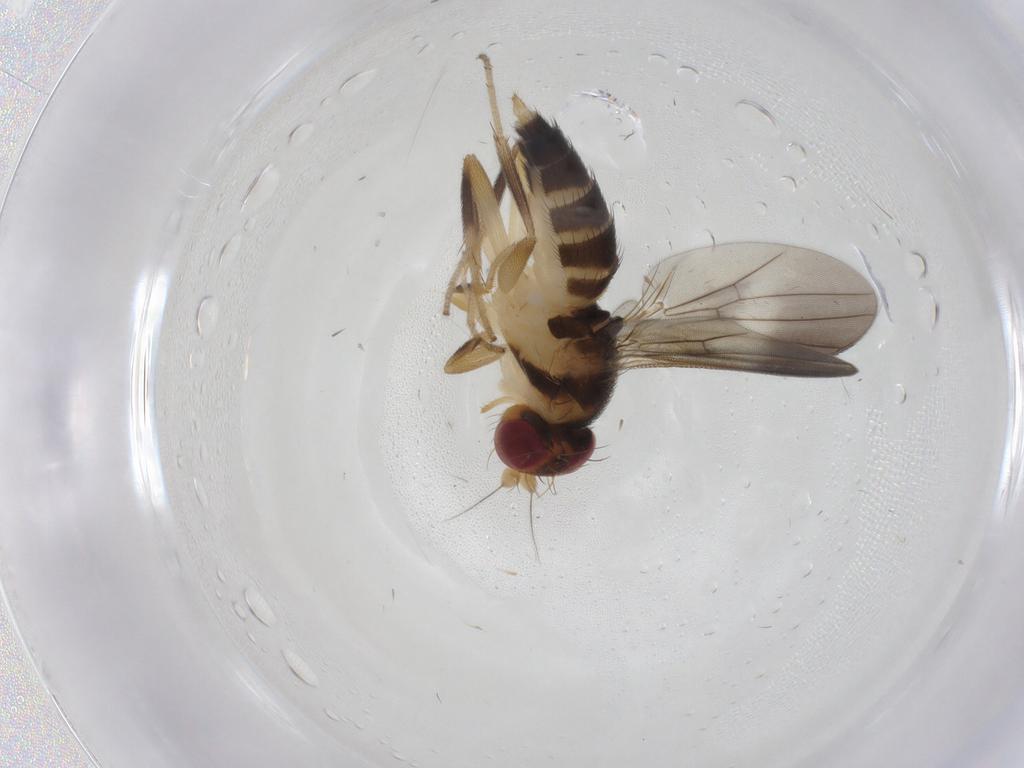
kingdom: Animalia
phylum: Arthropoda
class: Insecta
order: Diptera
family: Clusiidae
